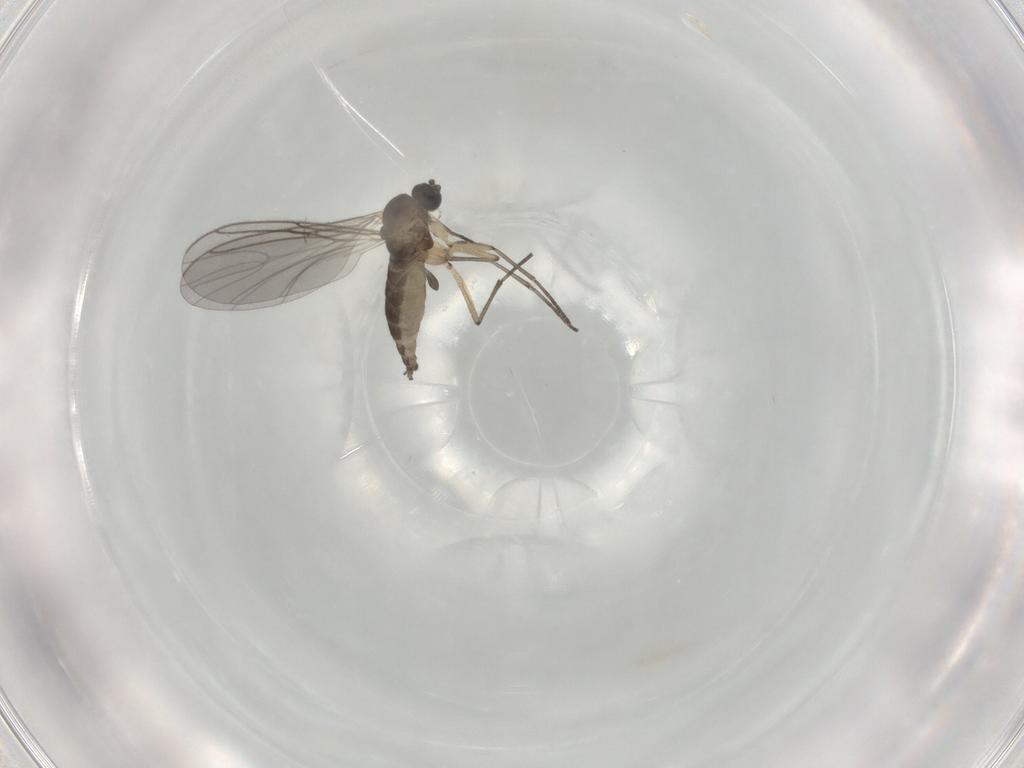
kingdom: Animalia
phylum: Arthropoda
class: Insecta
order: Diptera
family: Sciaridae
